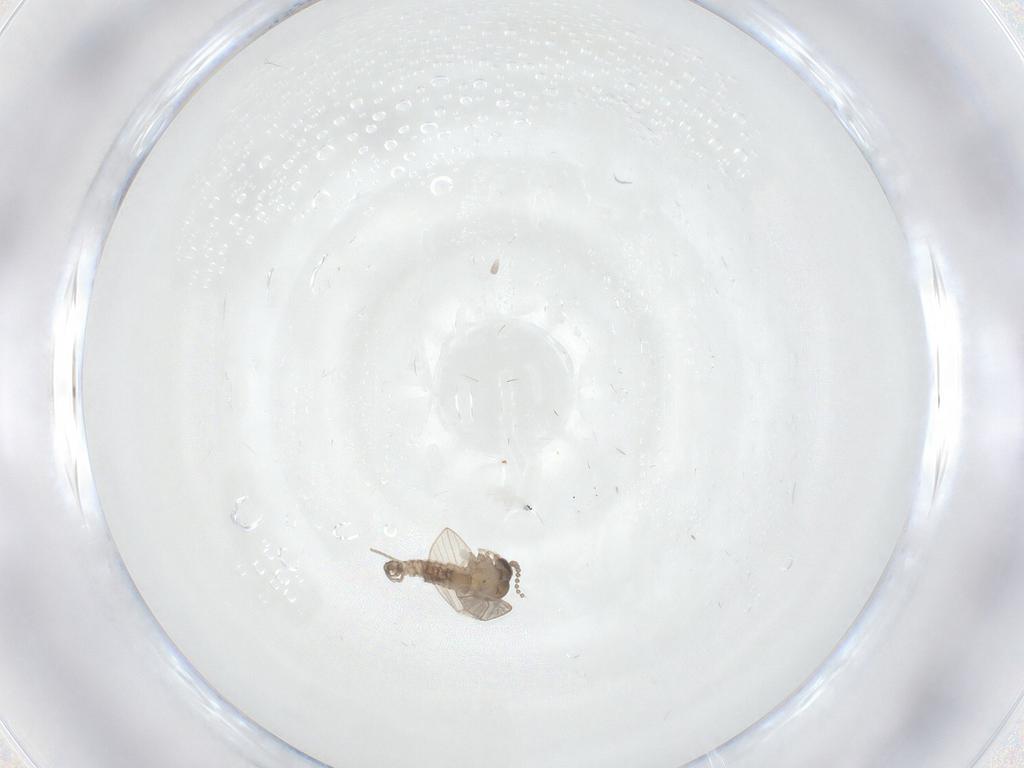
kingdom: Animalia
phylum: Arthropoda
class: Insecta
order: Diptera
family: Ceratopogonidae
